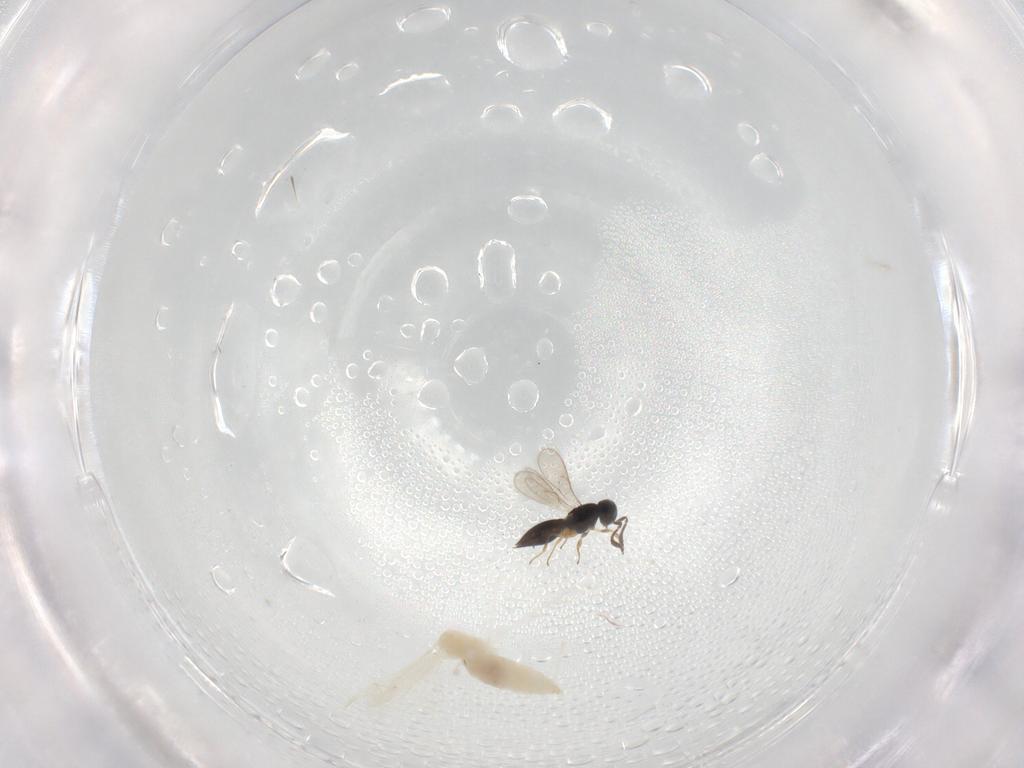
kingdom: Animalia
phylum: Arthropoda
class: Insecta
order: Hymenoptera
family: Scelionidae
